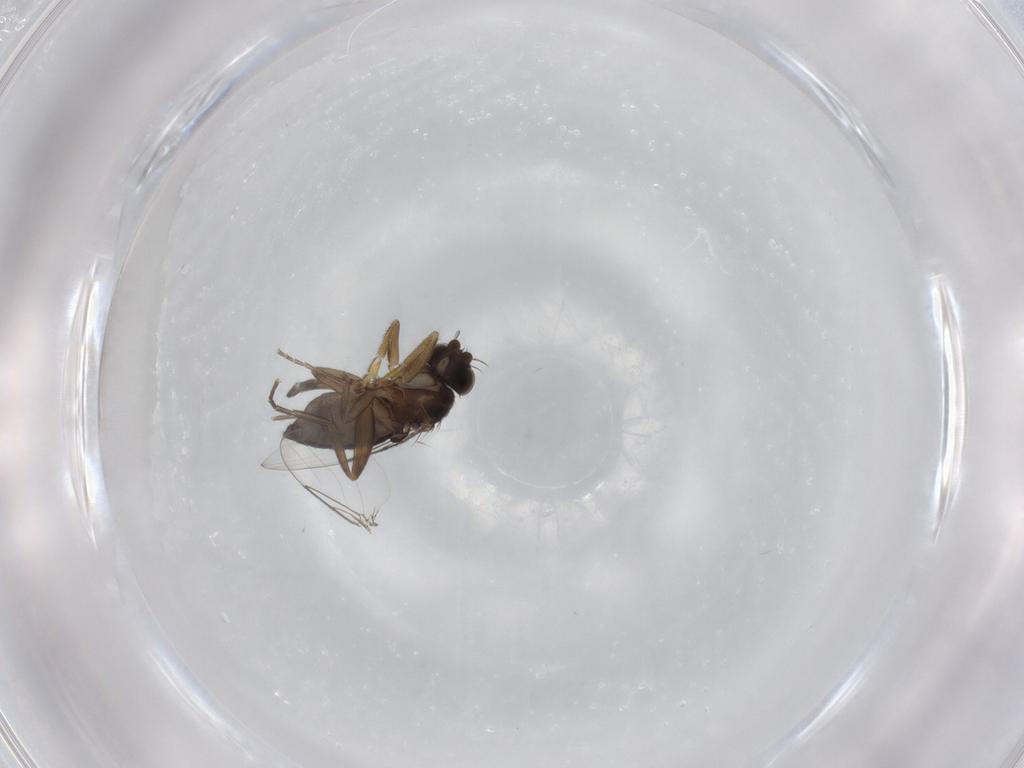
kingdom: Animalia
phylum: Arthropoda
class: Insecta
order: Diptera
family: Phoridae
